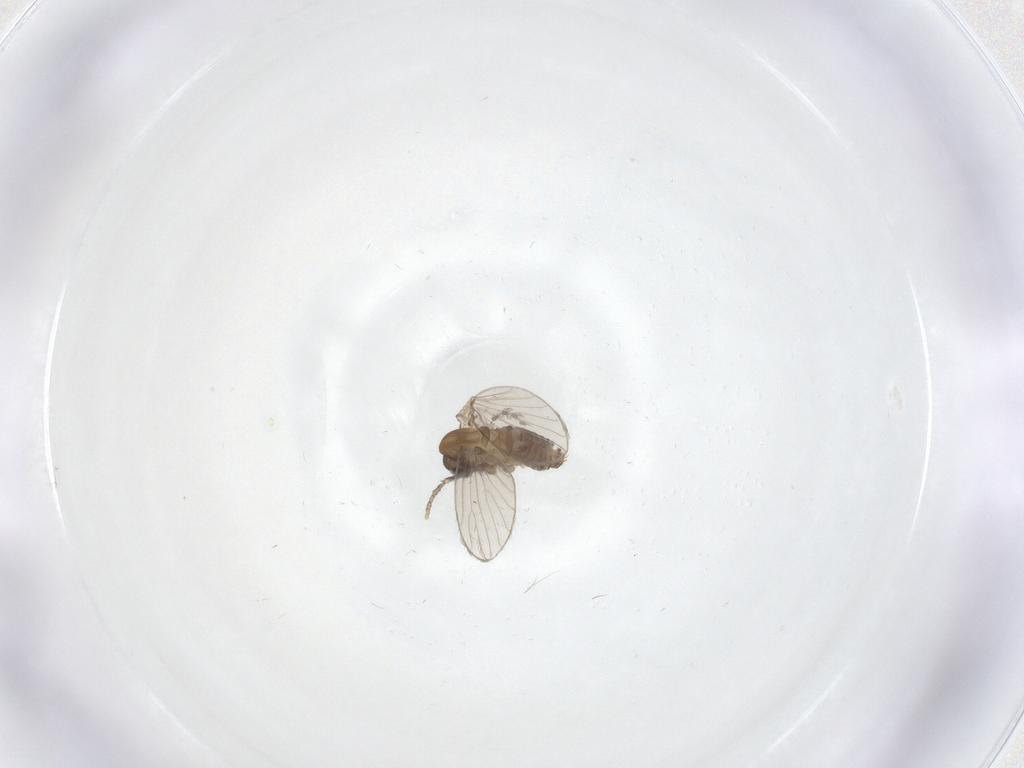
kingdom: Animalia
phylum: Arthropoda
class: Insecta
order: Diptera
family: Psychodidae
